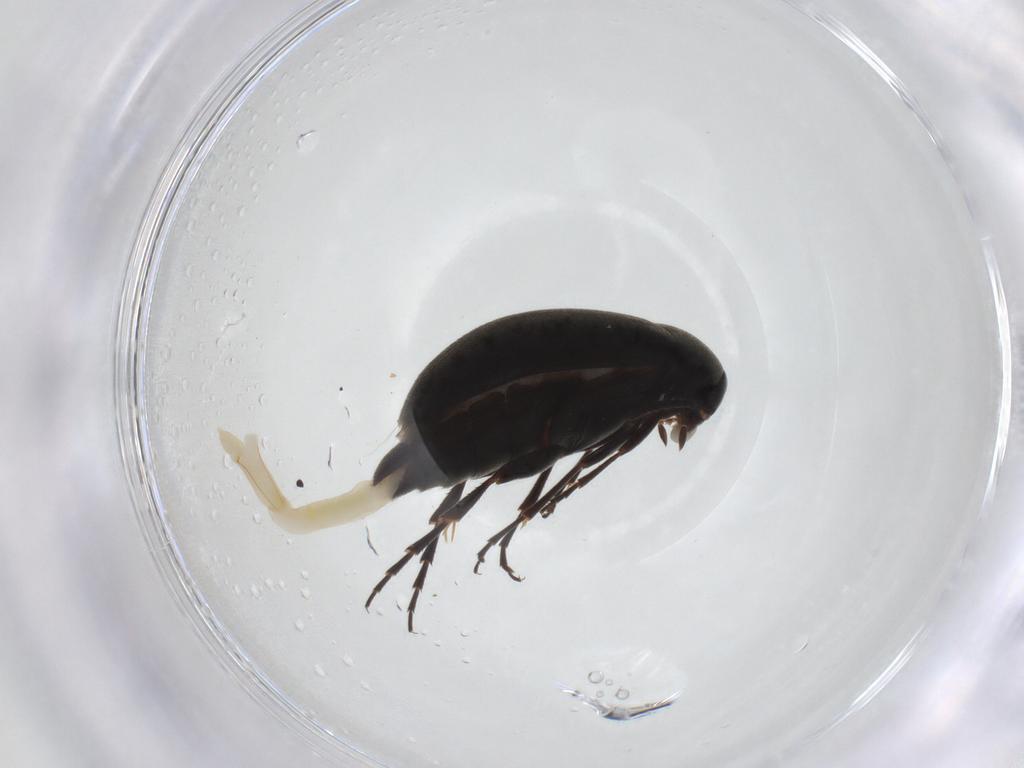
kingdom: Animalia
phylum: Arthropoda
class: Insecta
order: Coleoptera
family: Scraptiidae
